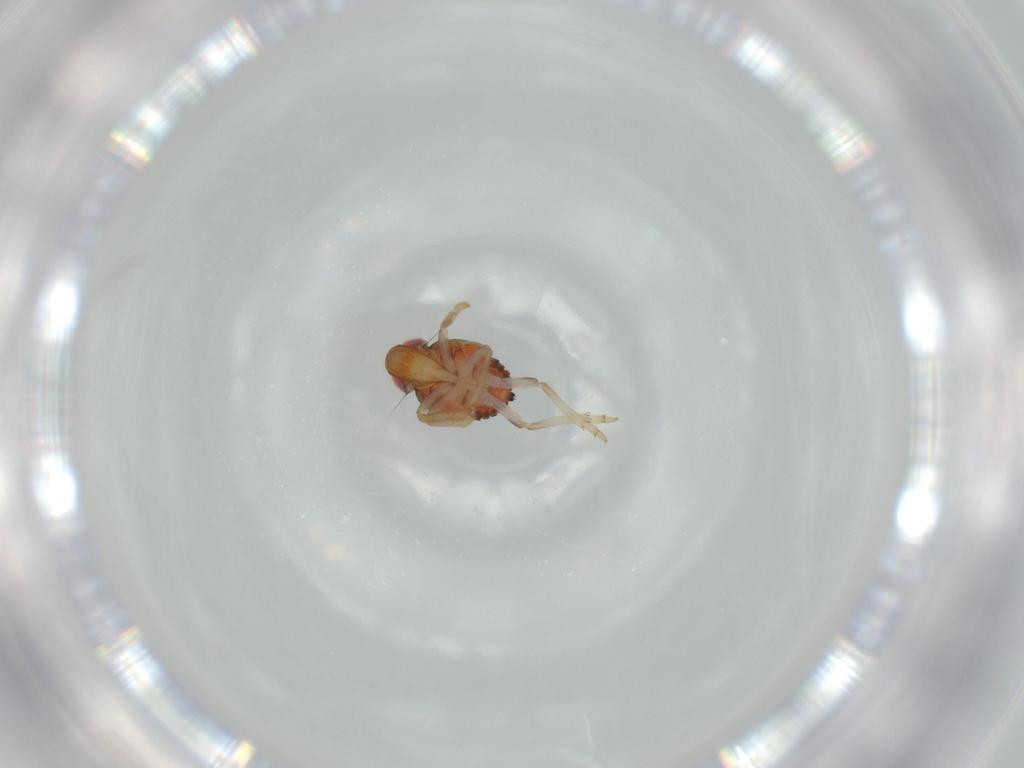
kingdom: Animalia
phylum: Arthropoda
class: Insecta
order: Hemiptera
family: Issidae
